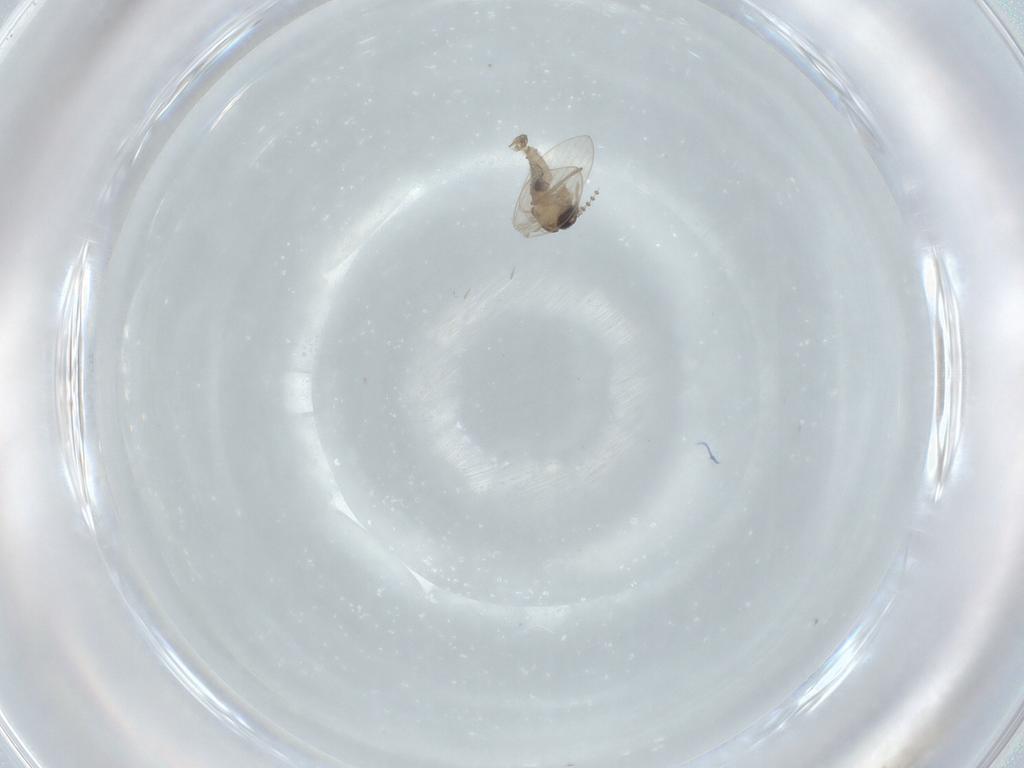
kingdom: Animalia
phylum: Arthropoda
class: Insecta
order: Diptera
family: Psychodidae
